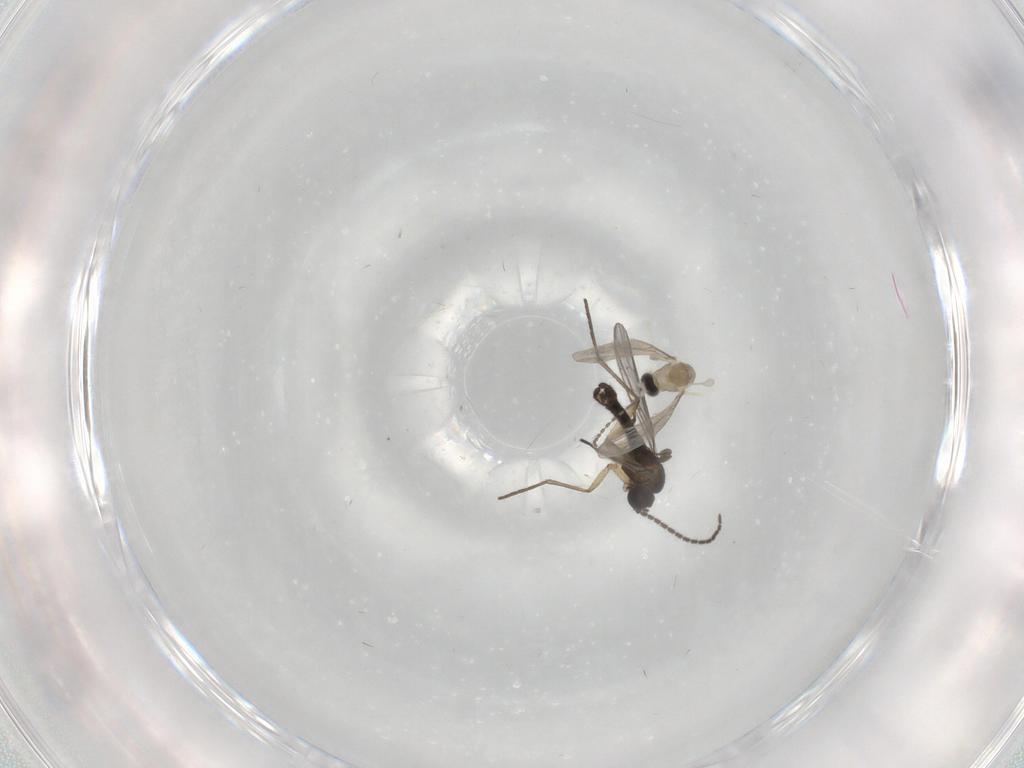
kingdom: Animalia
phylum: Arthropoda
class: Insecta
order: Diptera
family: Sciaridae
